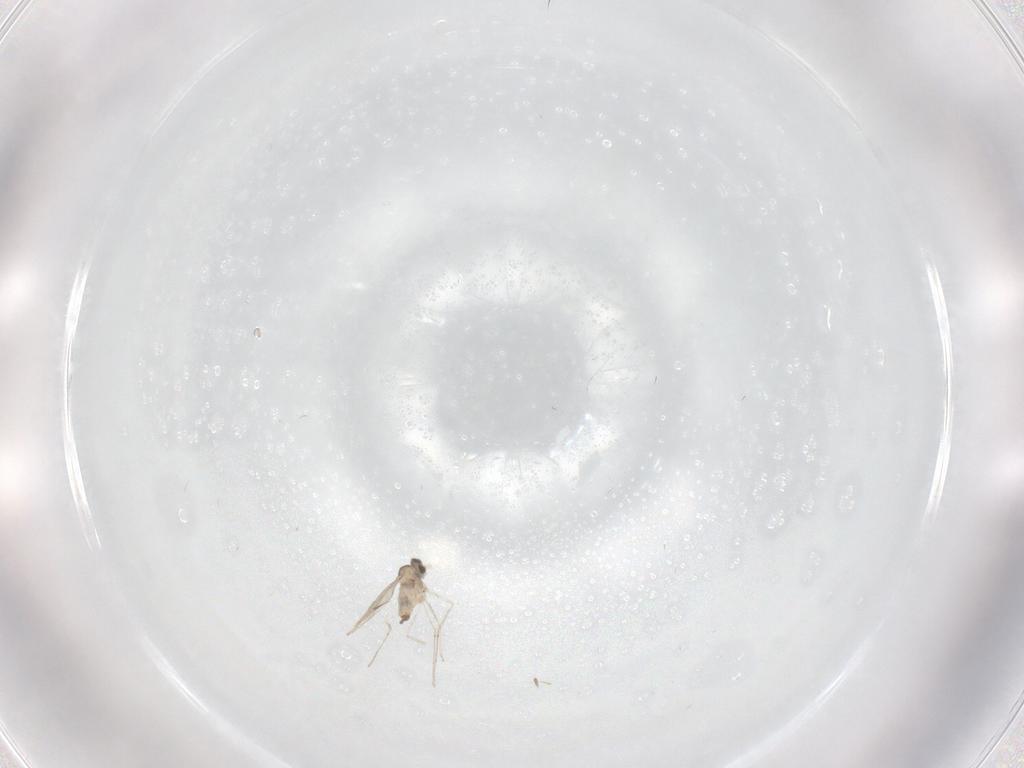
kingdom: Animalia
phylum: Arthropoda
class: Insecta
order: Diptera
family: Cecidomyiidae
